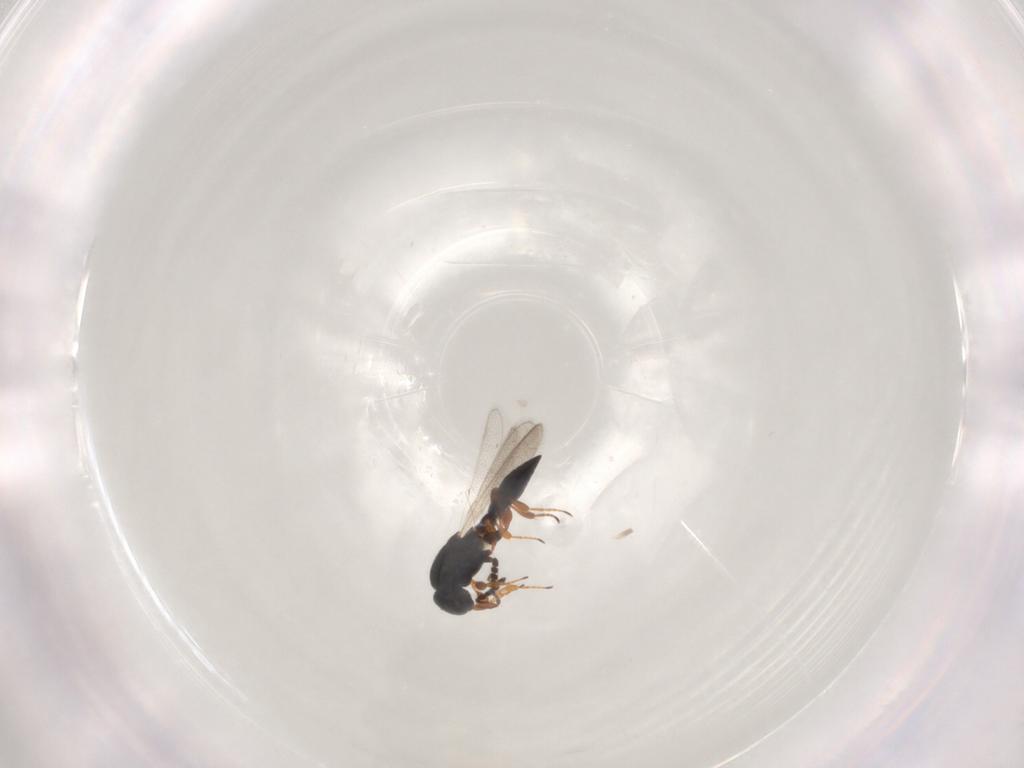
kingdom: Animalia
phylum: Arthropoda
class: Insecta
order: Hymenoptera
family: Platygastridae
